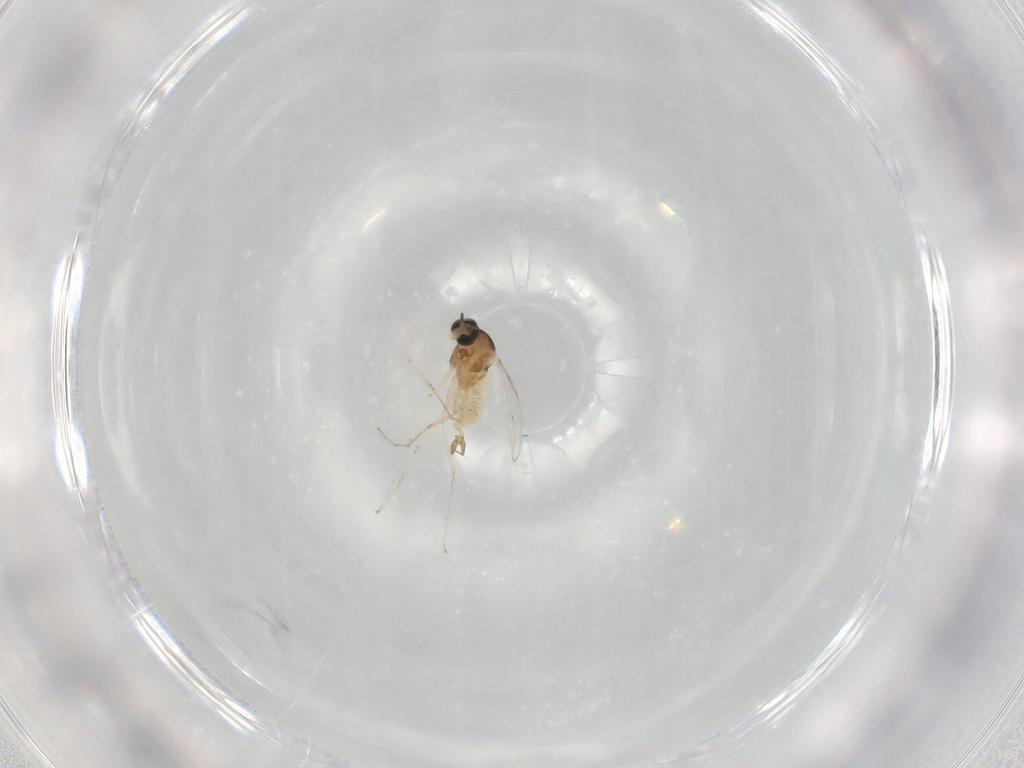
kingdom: Animalia
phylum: Arthropoda
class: Insecta
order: Diptera
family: Cecidomyiidae
